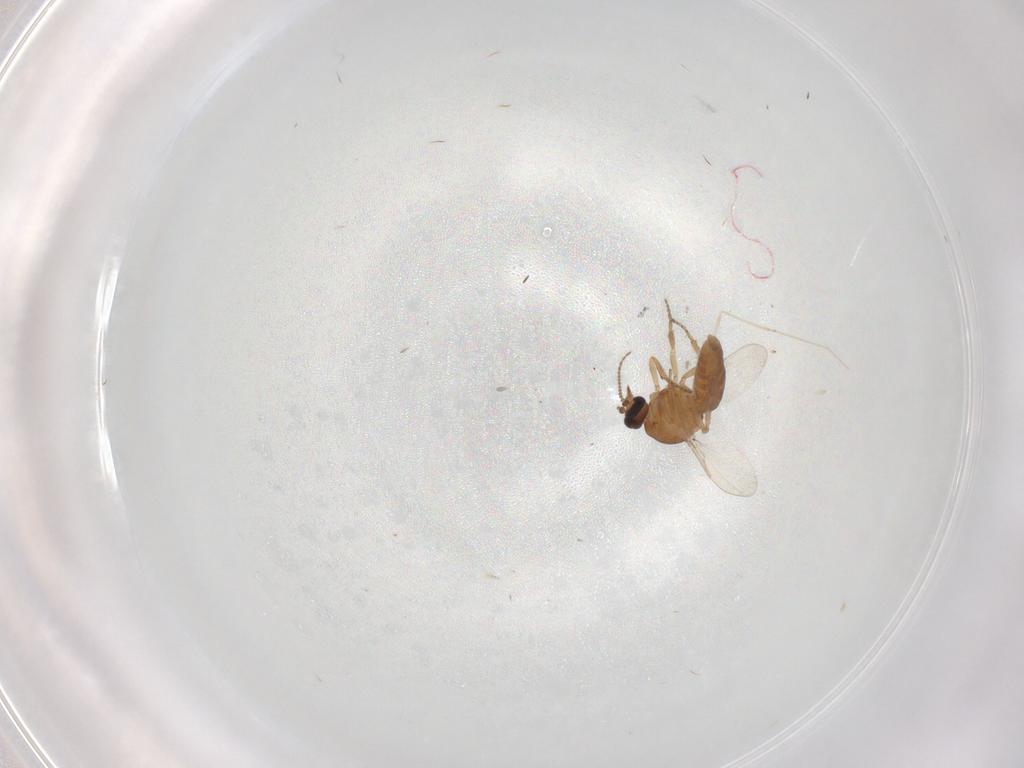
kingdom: Animalia
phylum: Arthropoda
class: Insecta
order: Diptera
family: Ceratopogonidae
